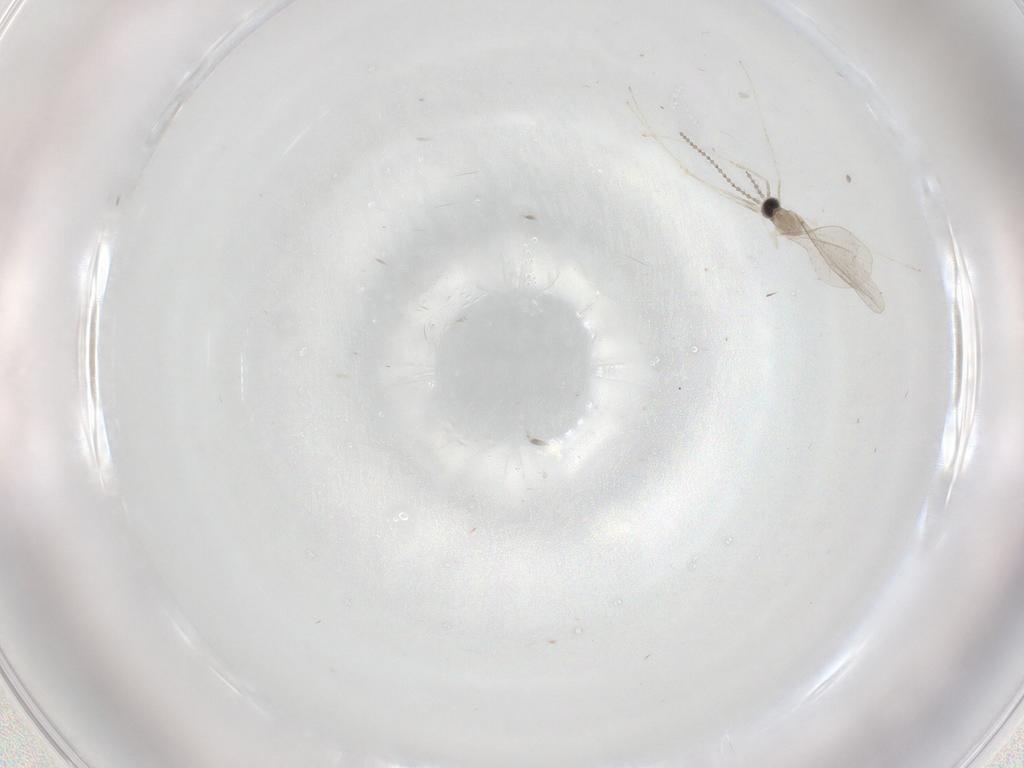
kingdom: Animalia
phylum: Arthropoda
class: Insecta
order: Diptera
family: Sciaridae
